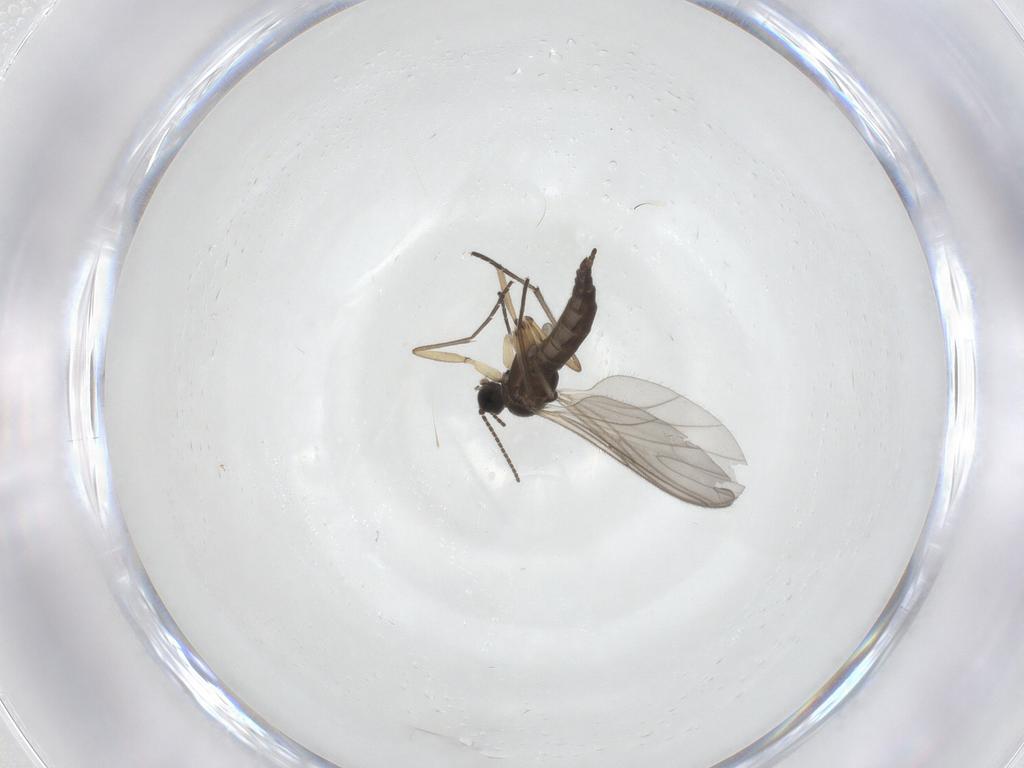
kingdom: Animalia
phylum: Arthropoda
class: Insecta
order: Diptera
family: Sciaridae
